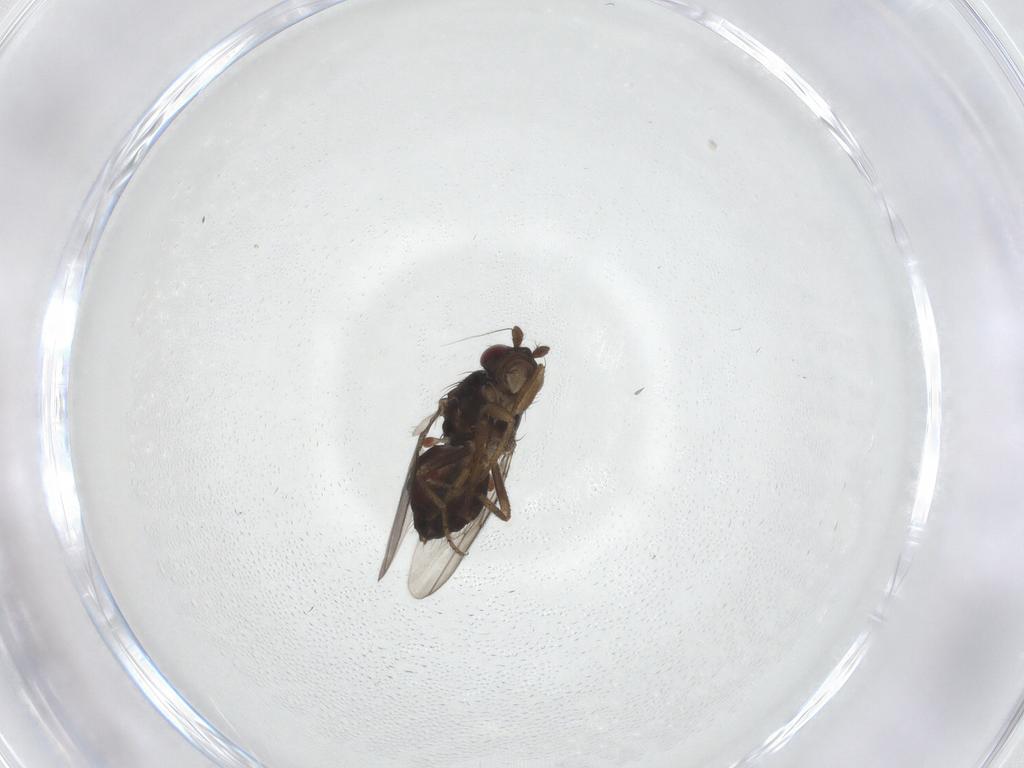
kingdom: Animalia
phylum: Arthropoda
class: Insecta
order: Diptera
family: Sphaeroceridae
